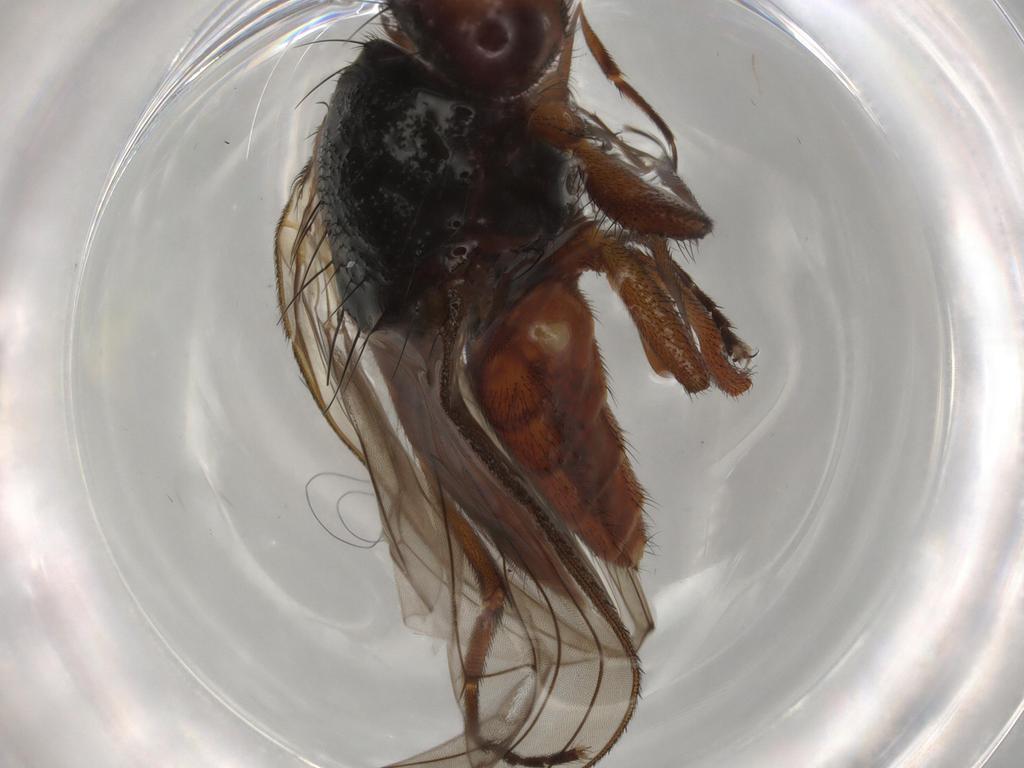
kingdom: Animalia
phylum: Arthropoda
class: Insecta
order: Diptera
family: Heleomyzidae
